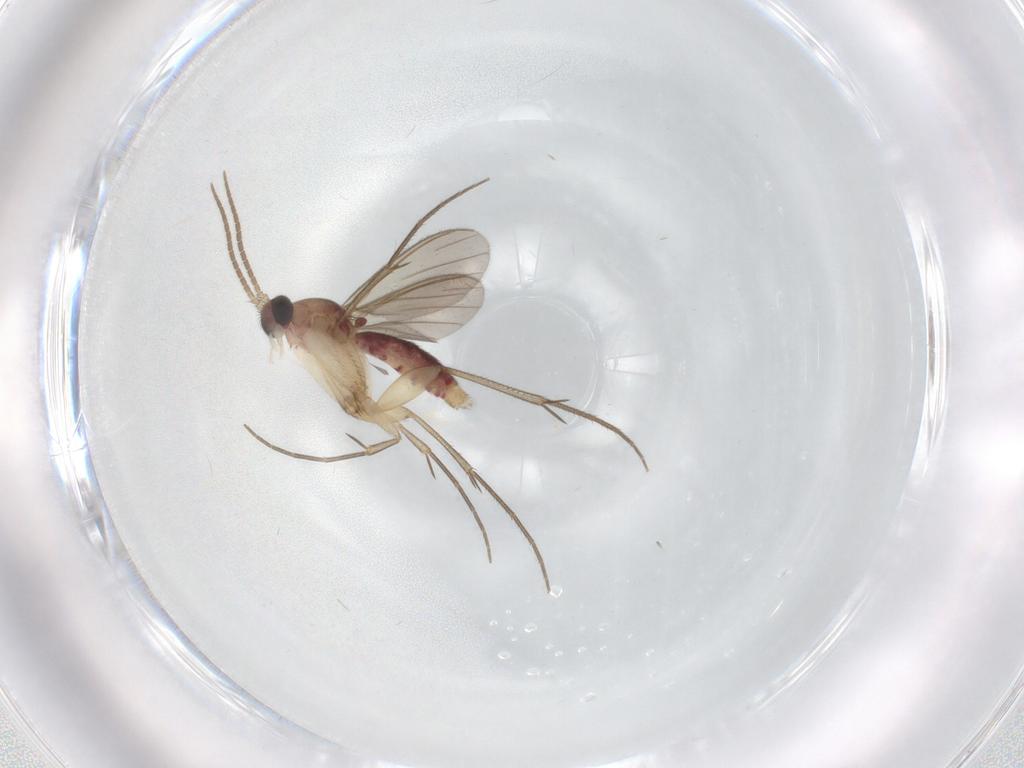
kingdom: Animalia
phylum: Arthropoda
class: Insecta
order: Diptera
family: Mycetophilidae
